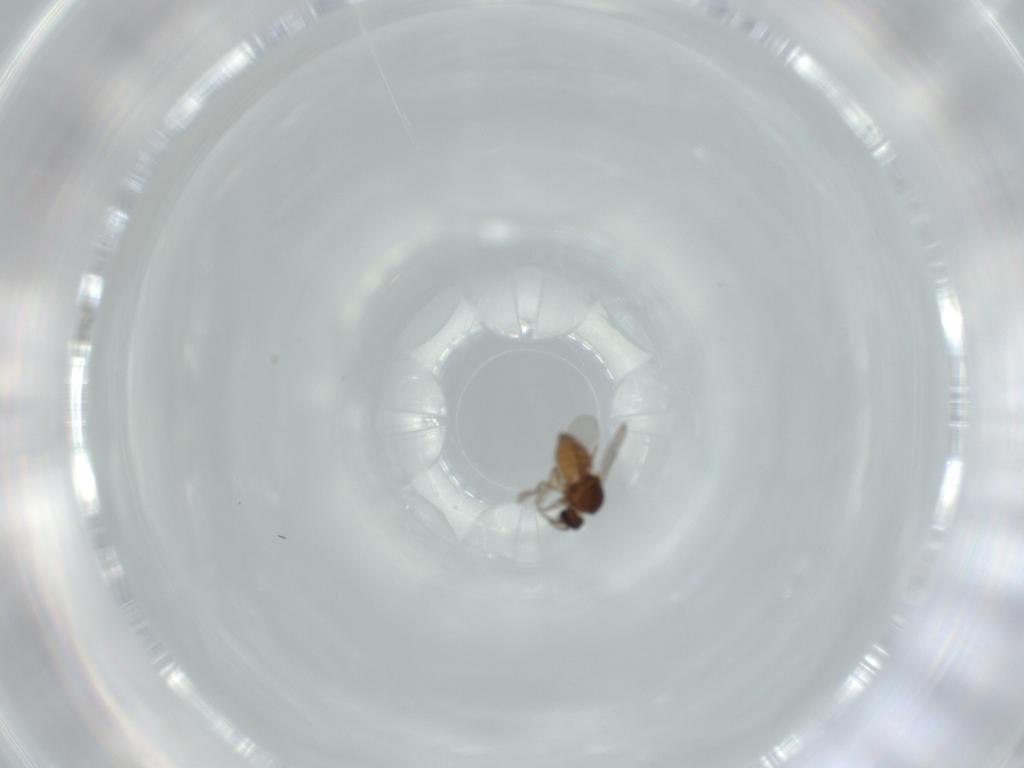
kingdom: Animalia
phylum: Arthropoda
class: Insecta
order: Diptera
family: Ceratopogonidae
